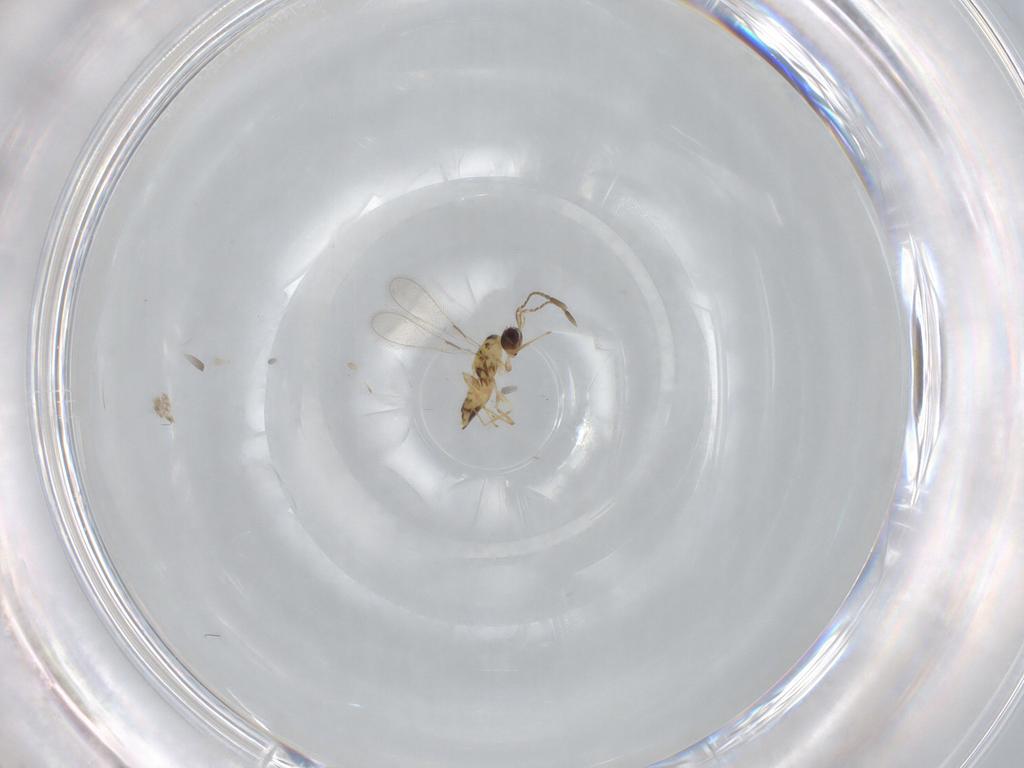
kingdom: Animalia
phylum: Arthropoda
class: Insecta
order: Hymenoptera
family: Mymaridae
